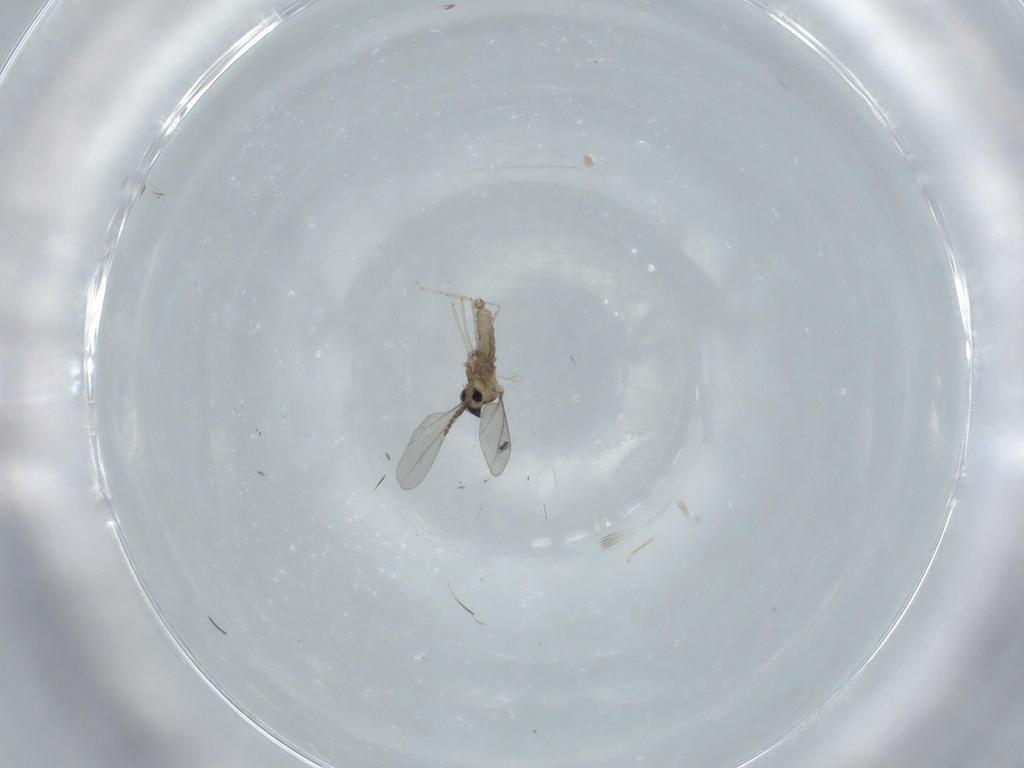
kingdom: Animalia
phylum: Arthropoda
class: Insecta
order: Diptera
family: Cecidomyiidae
